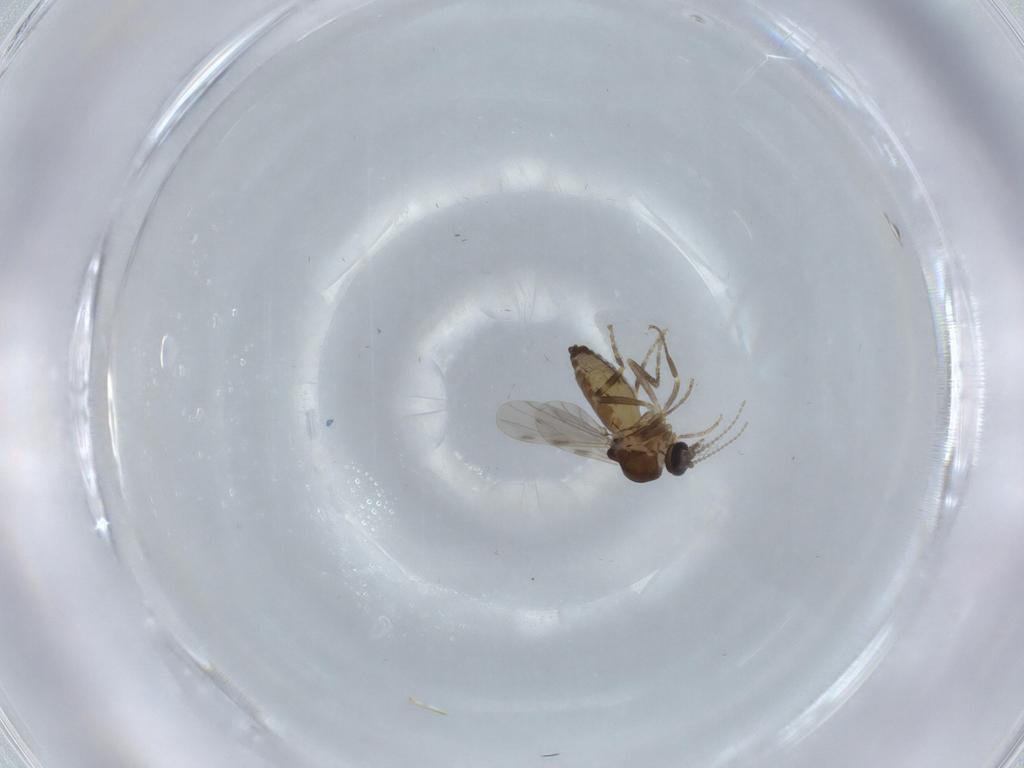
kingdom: Animalia
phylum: Arthropoda
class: Insecta
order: Diptera
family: Ceratopogonidae
